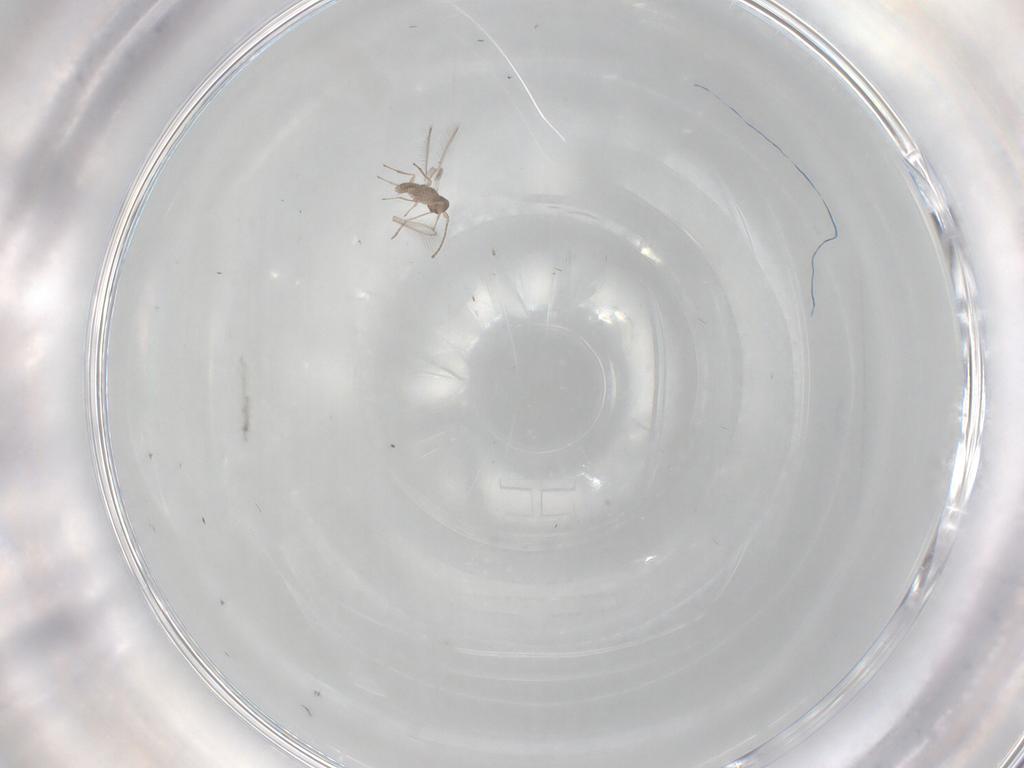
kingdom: Animalia
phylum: Arthropoda
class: Insecta
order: Hymenoptera
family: Mymaridae
